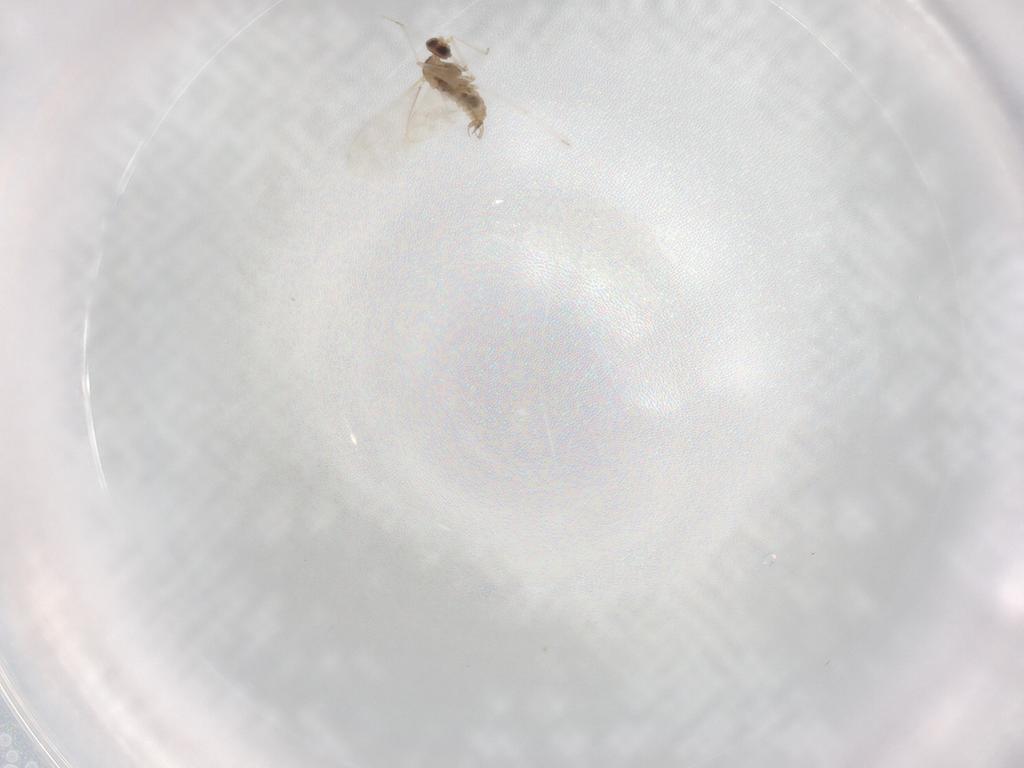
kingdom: Animalia
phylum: Arthropoda
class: Insecta
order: Diptera
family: Cecidomyiidae
